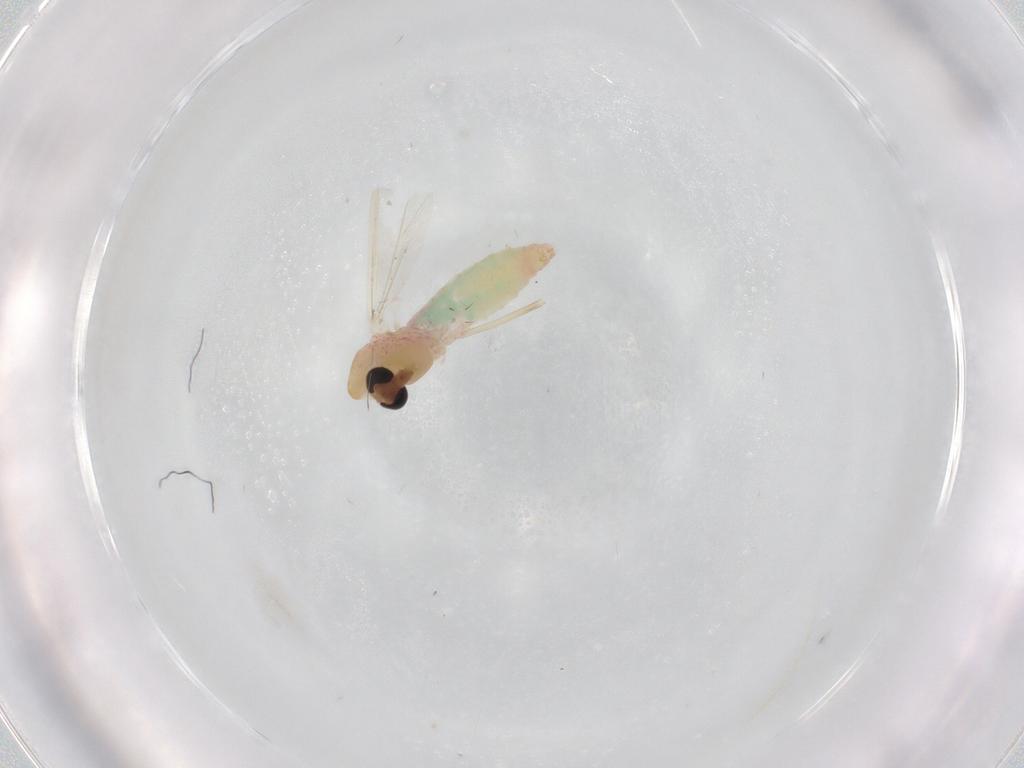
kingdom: Animalia
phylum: Arthropoda
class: Insecta
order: Diptera
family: Chironomidae
